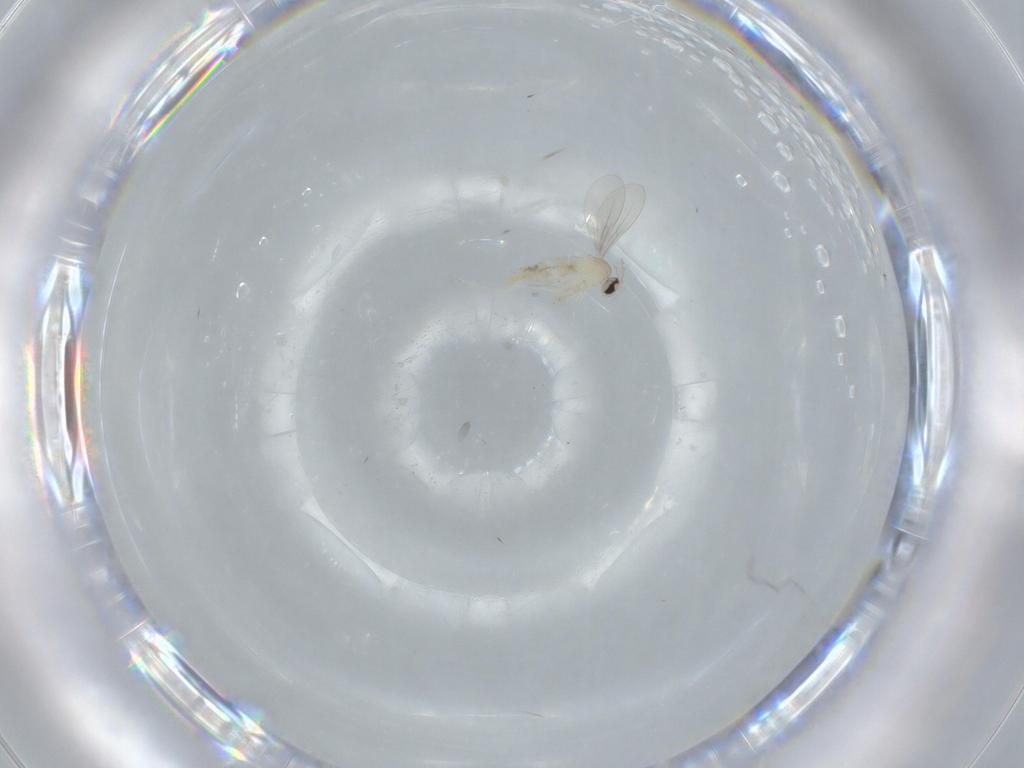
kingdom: Animalia
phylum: Arthropoda
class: Insecta
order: Diptera
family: Cecidomyiidae
